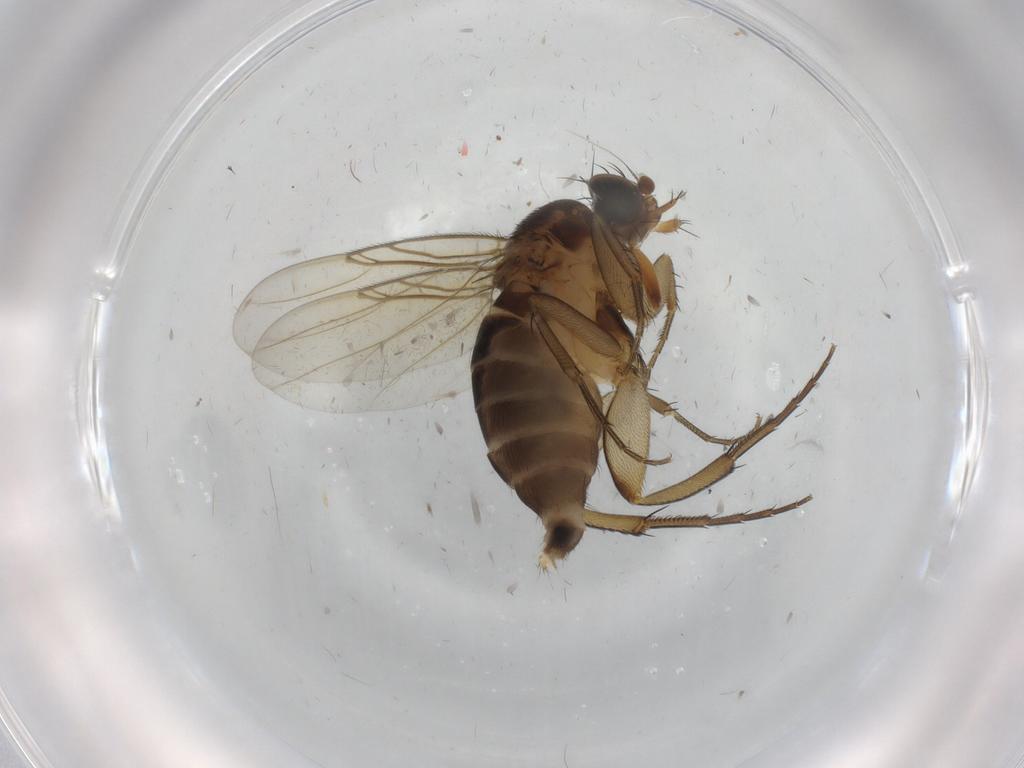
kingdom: Animalia
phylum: Arthropoda
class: Insecta
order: Diptera
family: Phoridae
